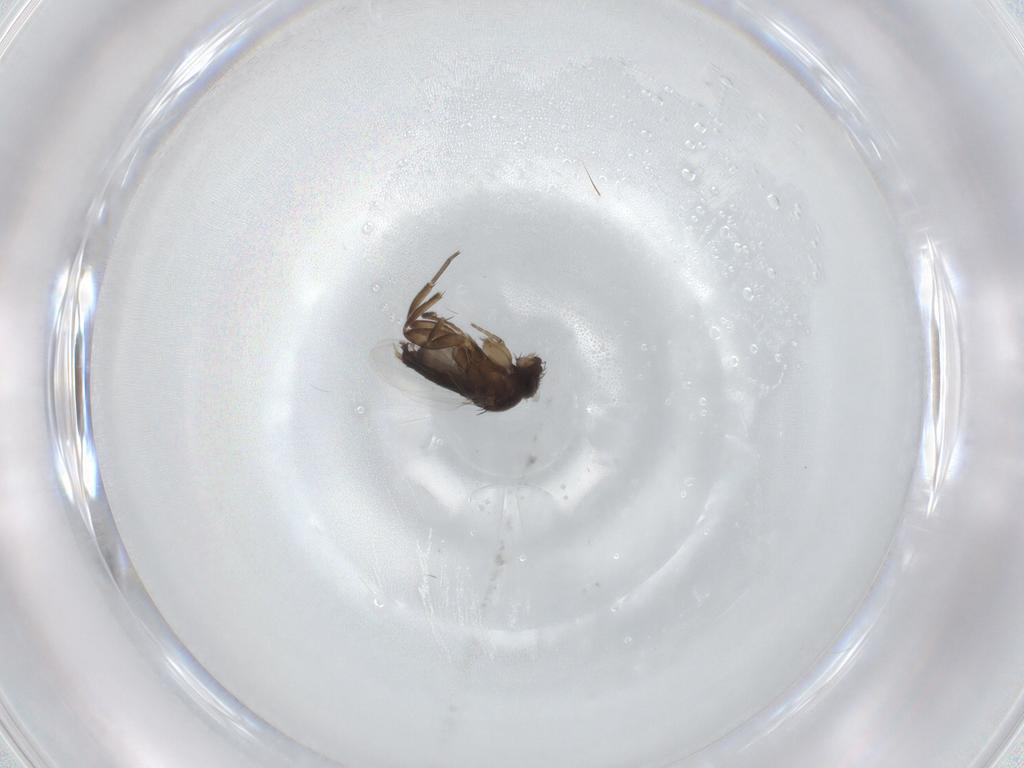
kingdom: Animalia
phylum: Arthropoda
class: Insecta
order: Diptera
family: Phoridae
